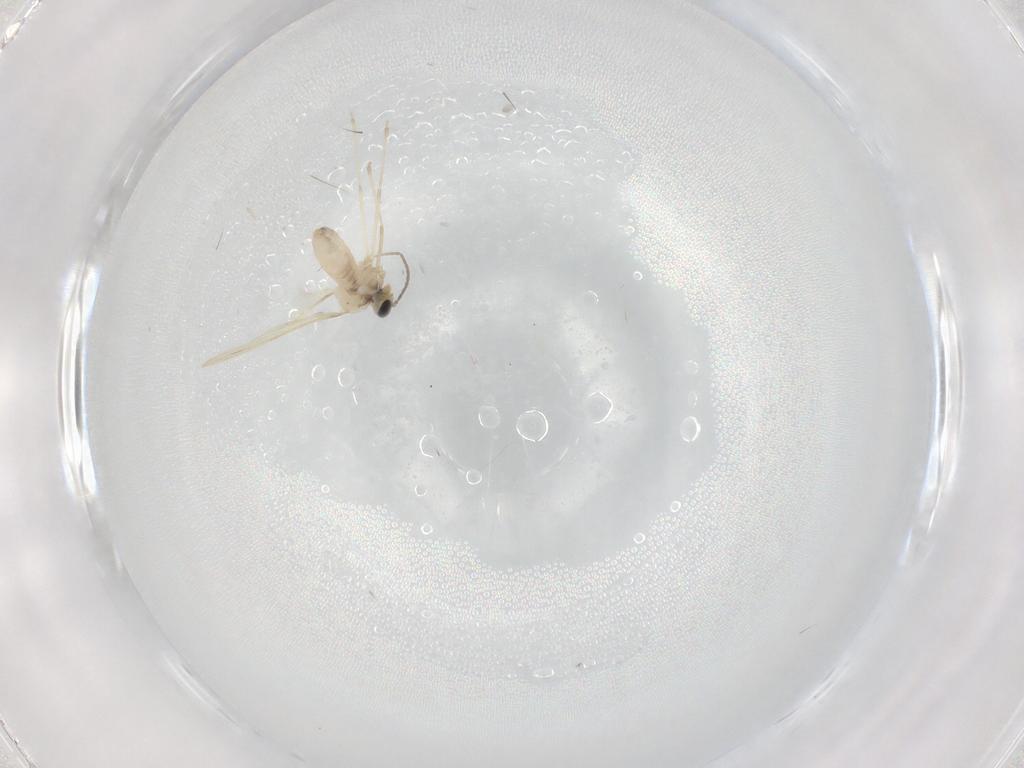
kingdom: Animalia
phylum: Arthropoda
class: Insecta
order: Diptera
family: Cecidomyiidae
